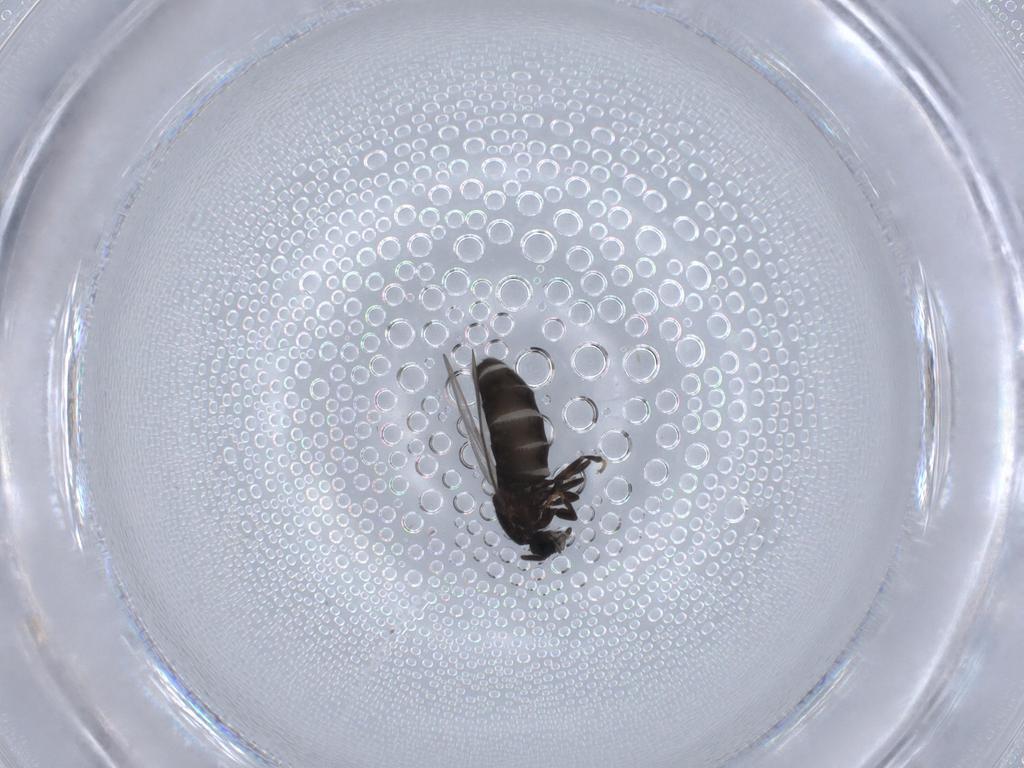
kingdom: Animalia
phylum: Arthropoda
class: Insecta
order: Diptera
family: Scatopsidae
